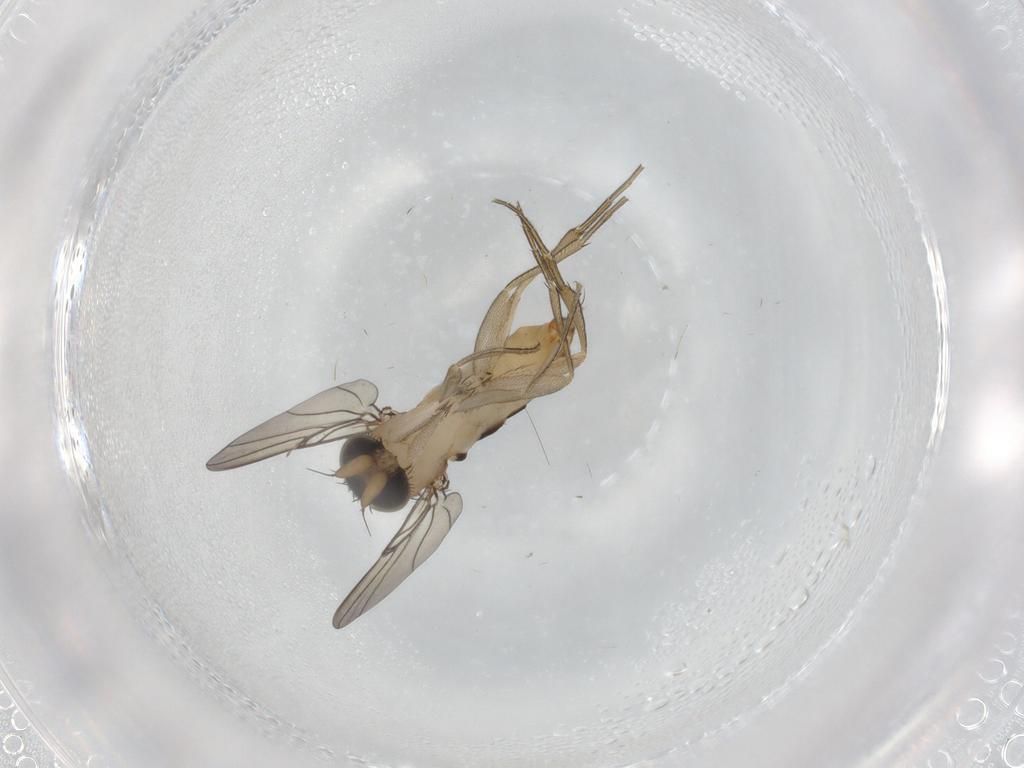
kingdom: Animalia
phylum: Arthropoda
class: Insecta
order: Diptera
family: Phoridae
